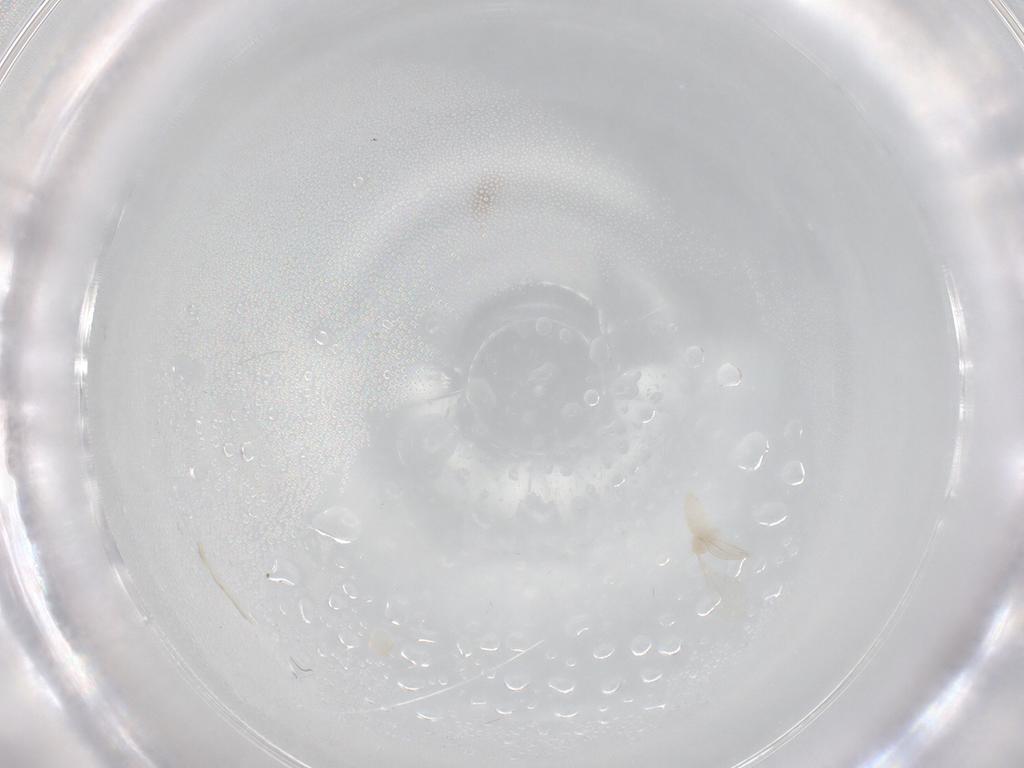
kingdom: Animalia
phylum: Arthropoda
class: Insecta
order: Diptera
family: Cecidomyiidae
